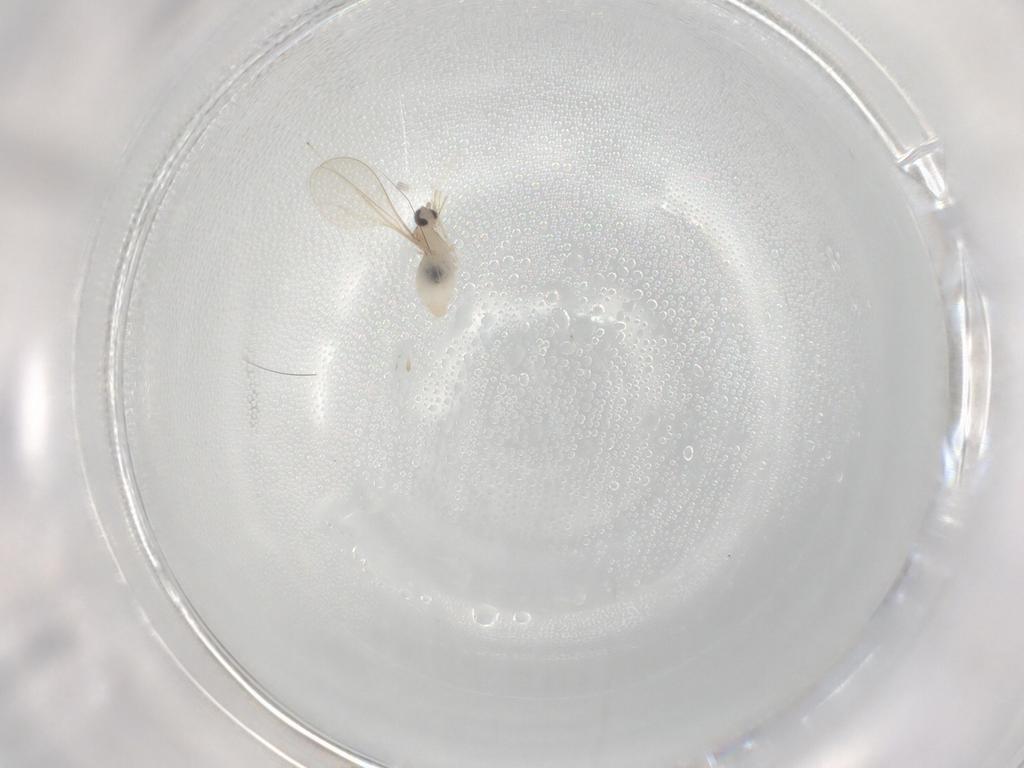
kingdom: Animalia
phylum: Arthropoda
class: Insecta
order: Diptera
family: Cecidomyiidae
